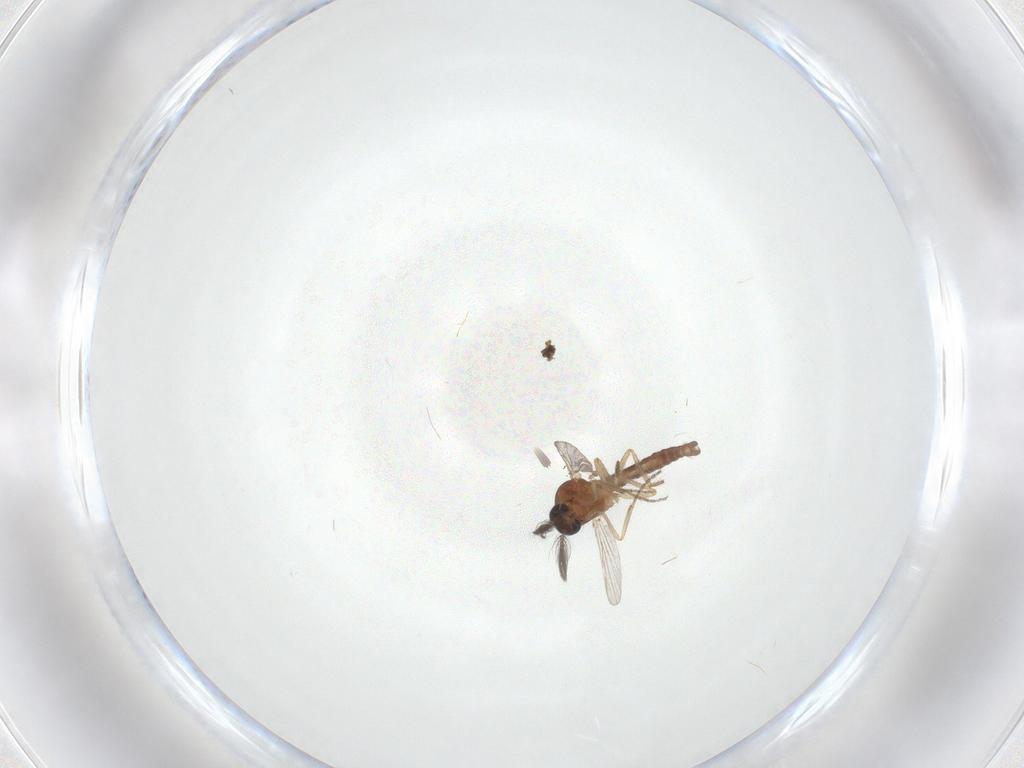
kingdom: Animalia
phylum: Arthropoda
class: Insecta
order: Diptera
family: Ceratopogonidae
